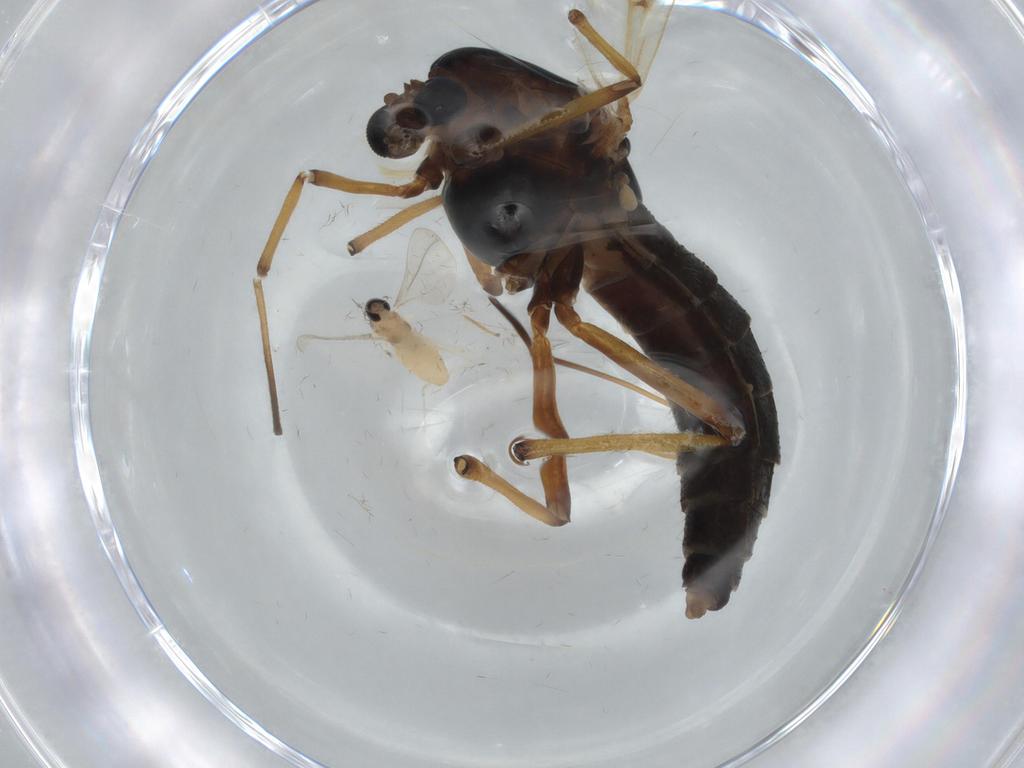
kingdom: Animalia
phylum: Arthropoda
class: Insecta
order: Diptera
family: Chironomidae
